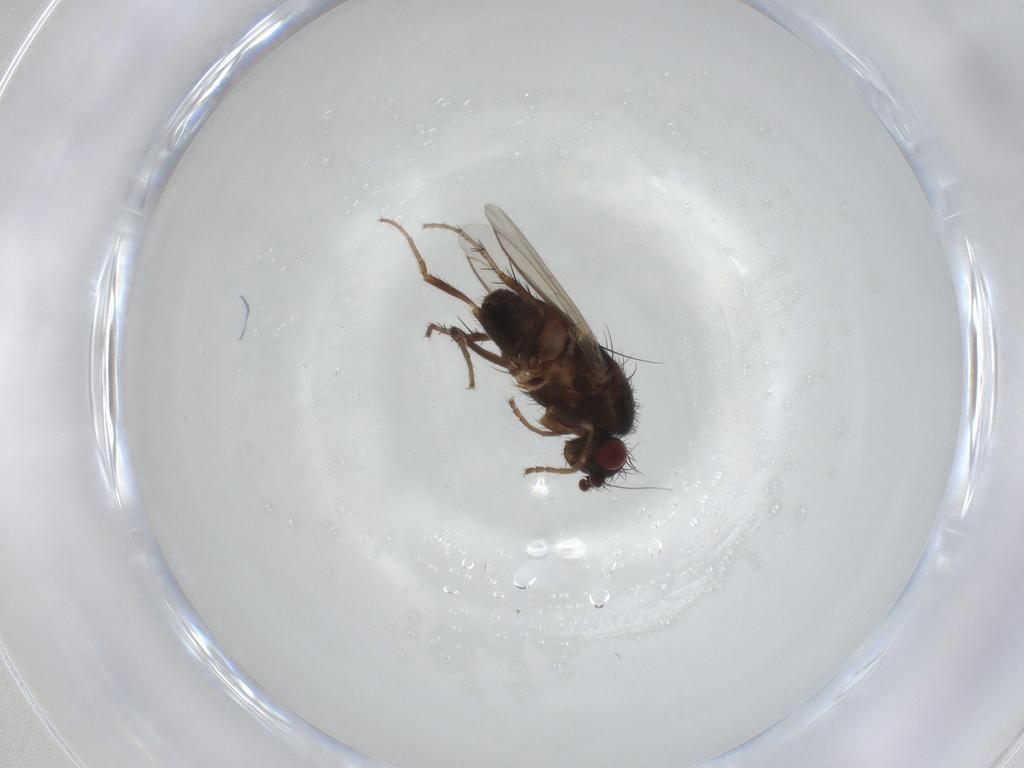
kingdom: Animalia
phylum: Arthropoda
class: Insecta
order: Diptera
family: Sphaeroceridae
